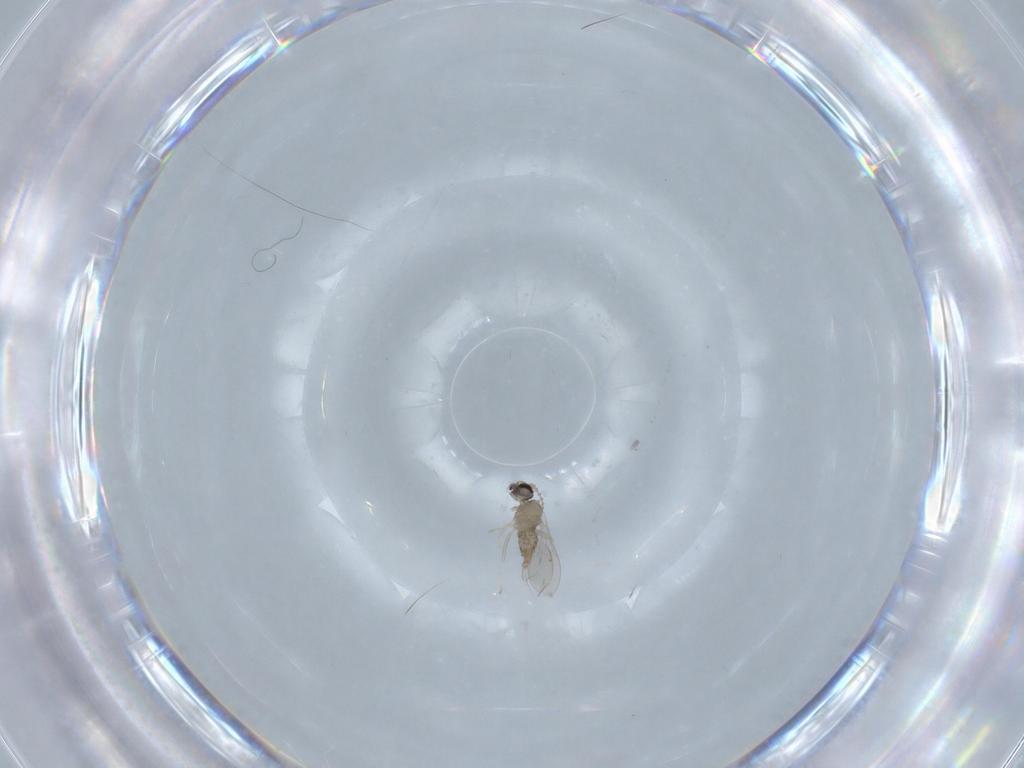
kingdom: Animalia
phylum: Arthropoda
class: Insecta
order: Diptera
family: Cecidomyiidae
